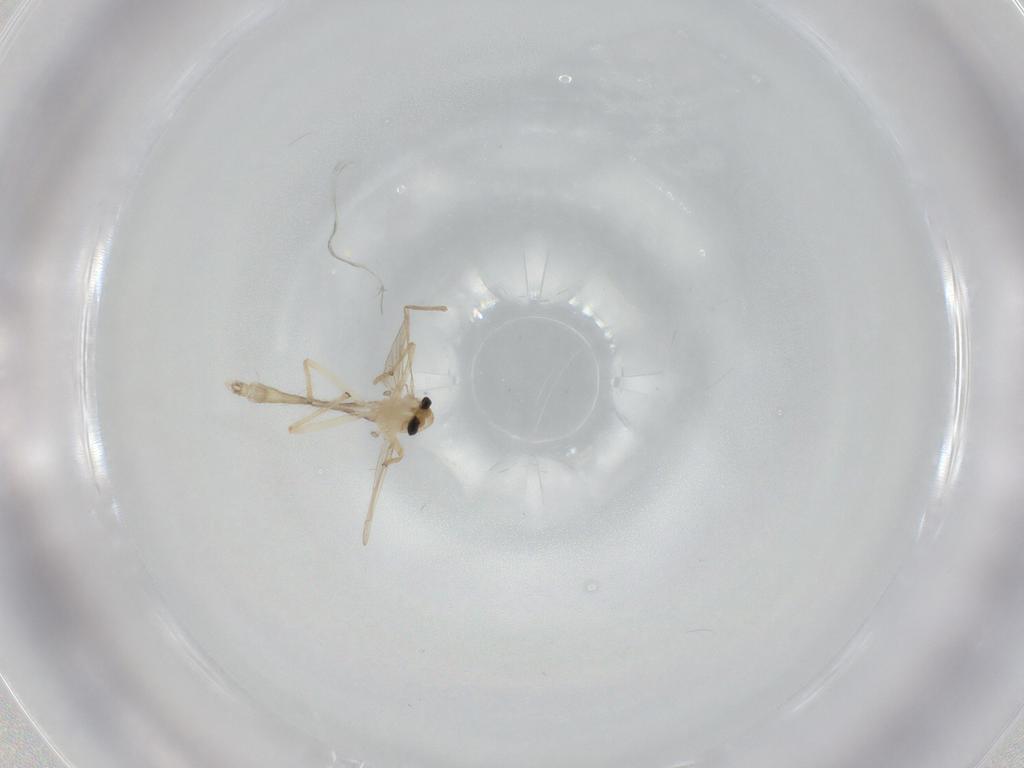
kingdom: Animalia
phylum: Arthropoda
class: Insecta
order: Diptera
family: Chironomidae
